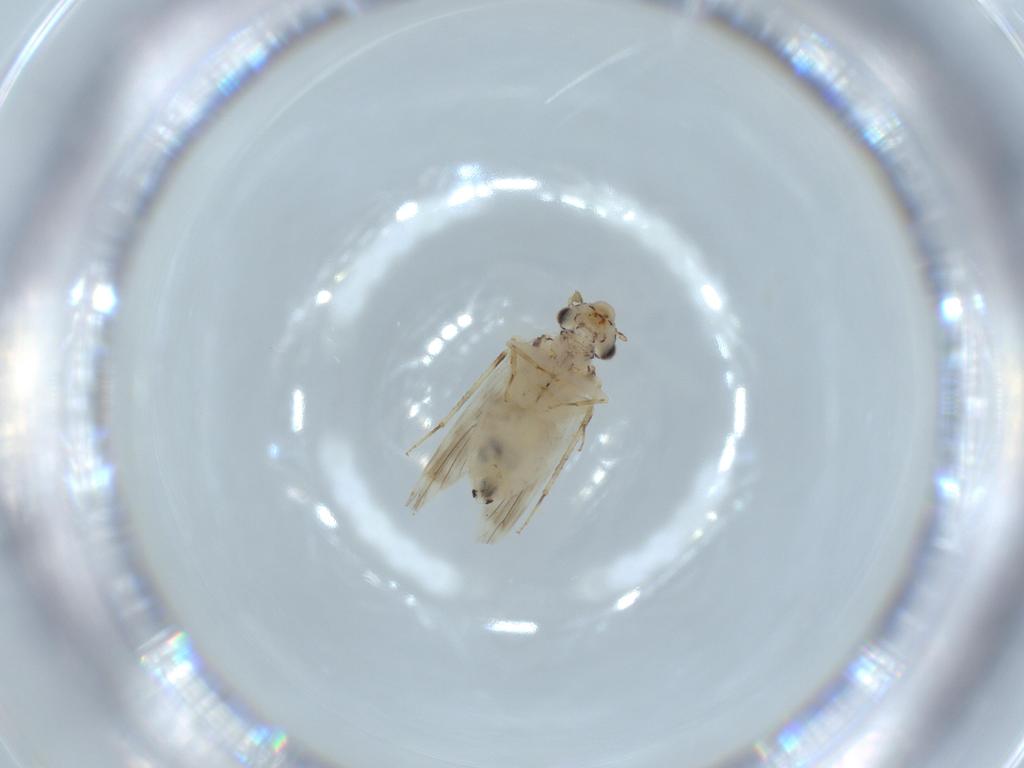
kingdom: Animalia
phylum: Arthropoda
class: Insecta
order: Psocodea
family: Lepidopsocidae
